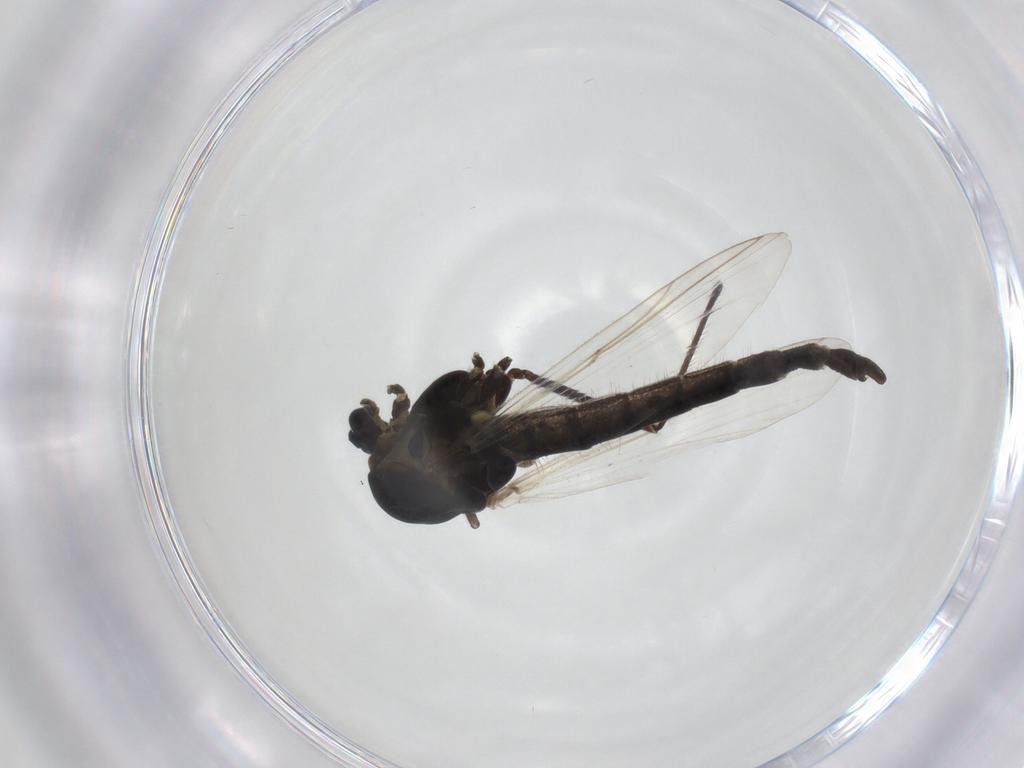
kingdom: Animalia
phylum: Arthropoda
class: Insecta
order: Diptera
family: Chironomidae
